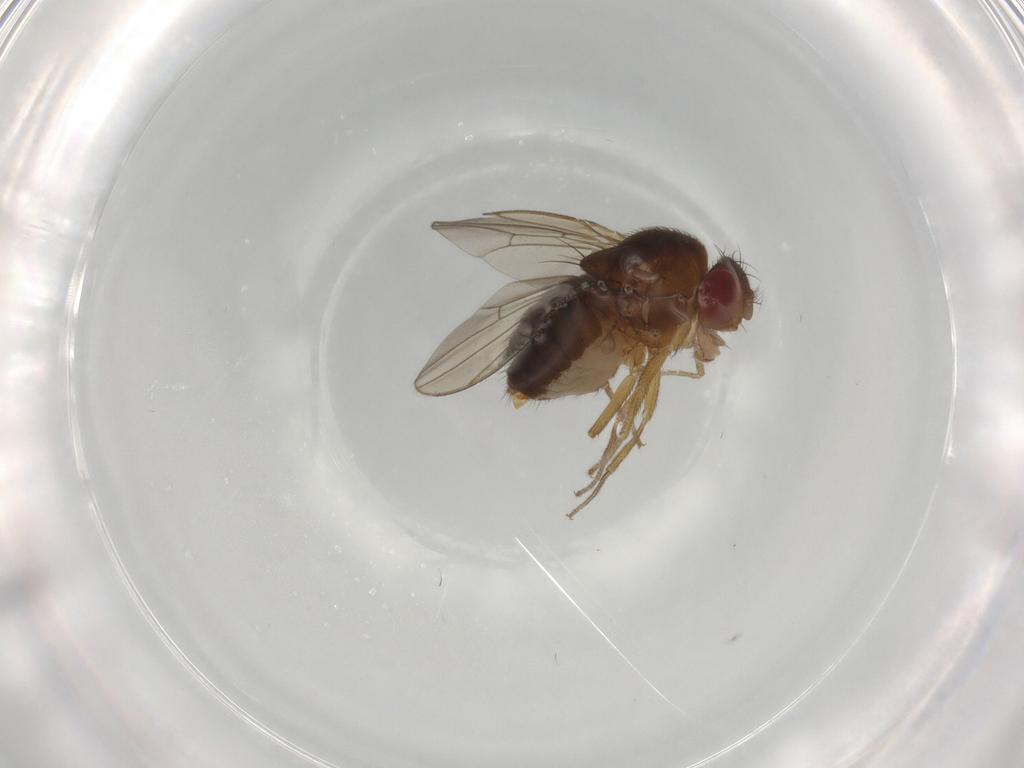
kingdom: Animalia
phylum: Arthropoda
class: Insecta
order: Diptera
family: Drosophilidae
